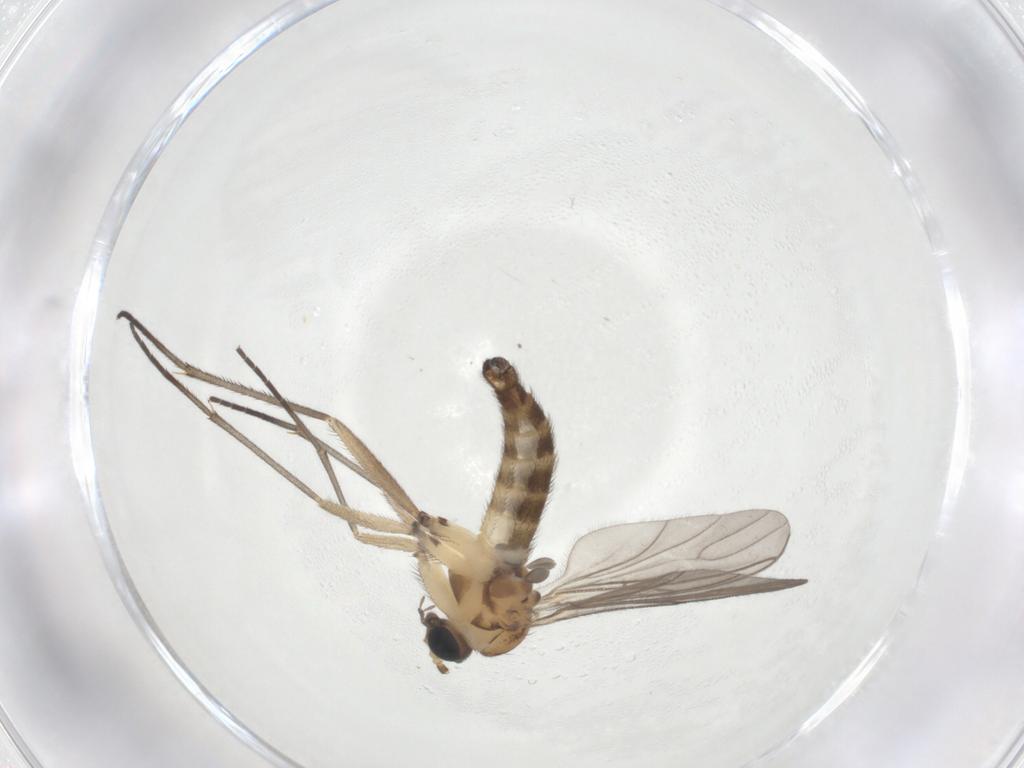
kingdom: Animalia
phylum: Arthropoda
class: Insecta
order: Diptera
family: Sciaridae
